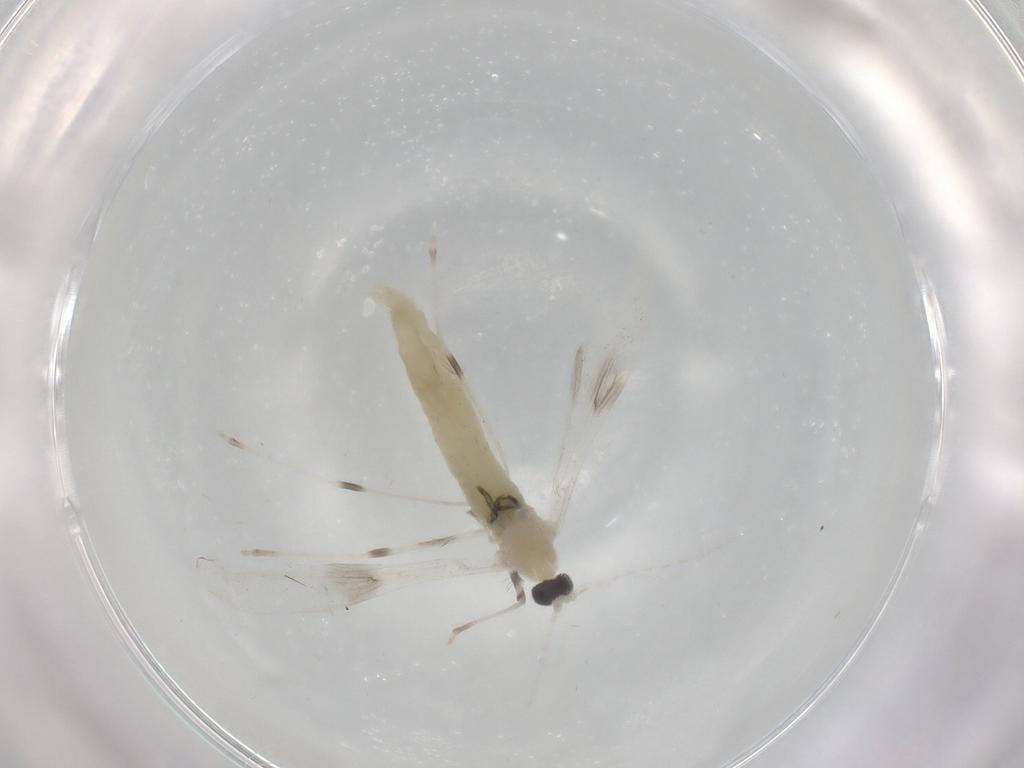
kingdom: Animalia
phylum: Arthropoda
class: Insecta
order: Diptera
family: Cecidomyiidae
